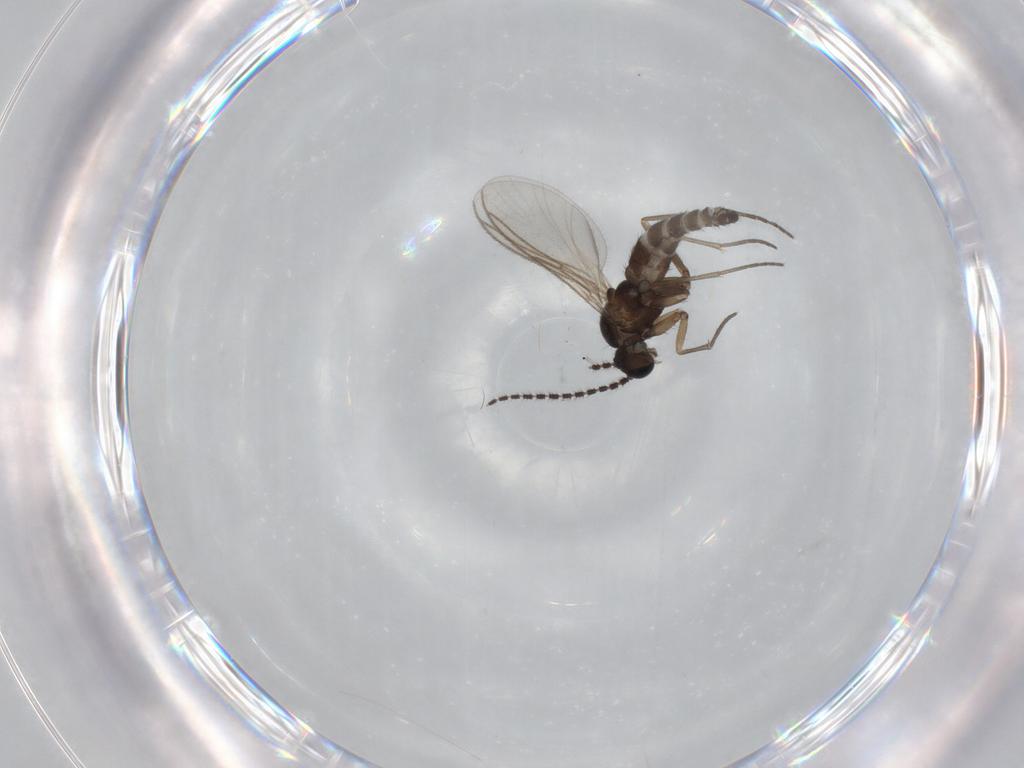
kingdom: Animalia
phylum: Arthropoda
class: Insecta
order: Diptera
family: Sciaridae
